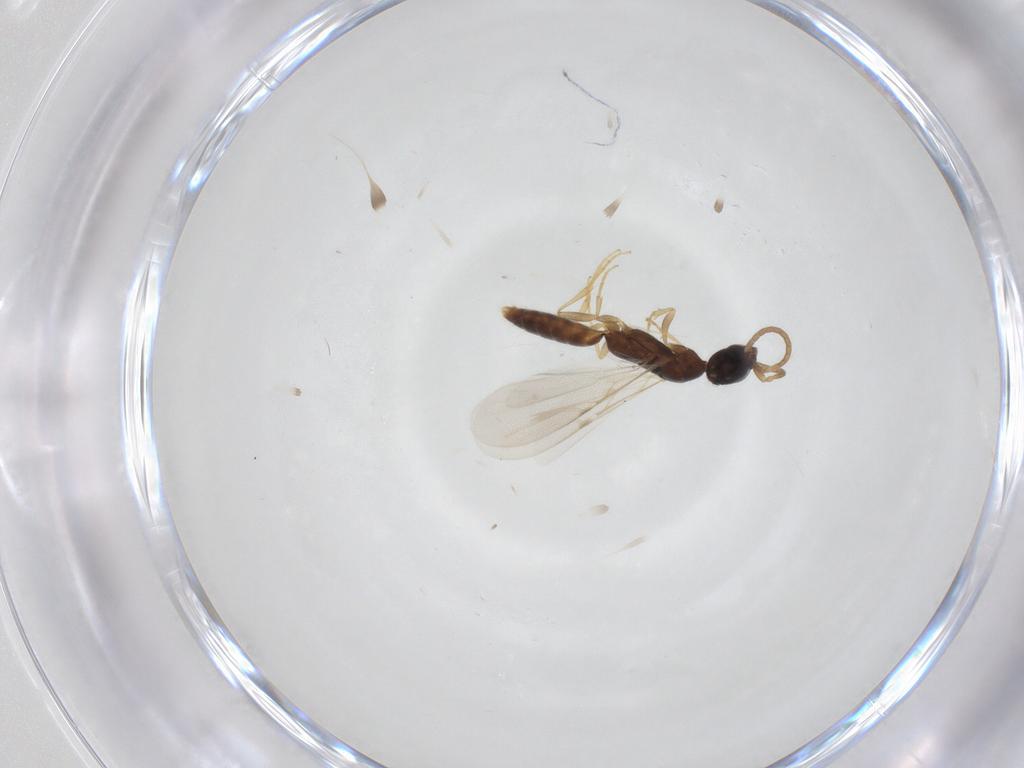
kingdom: Animalia
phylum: Arthropoda
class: Insecta
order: Hymenoptera
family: Bethylidae
